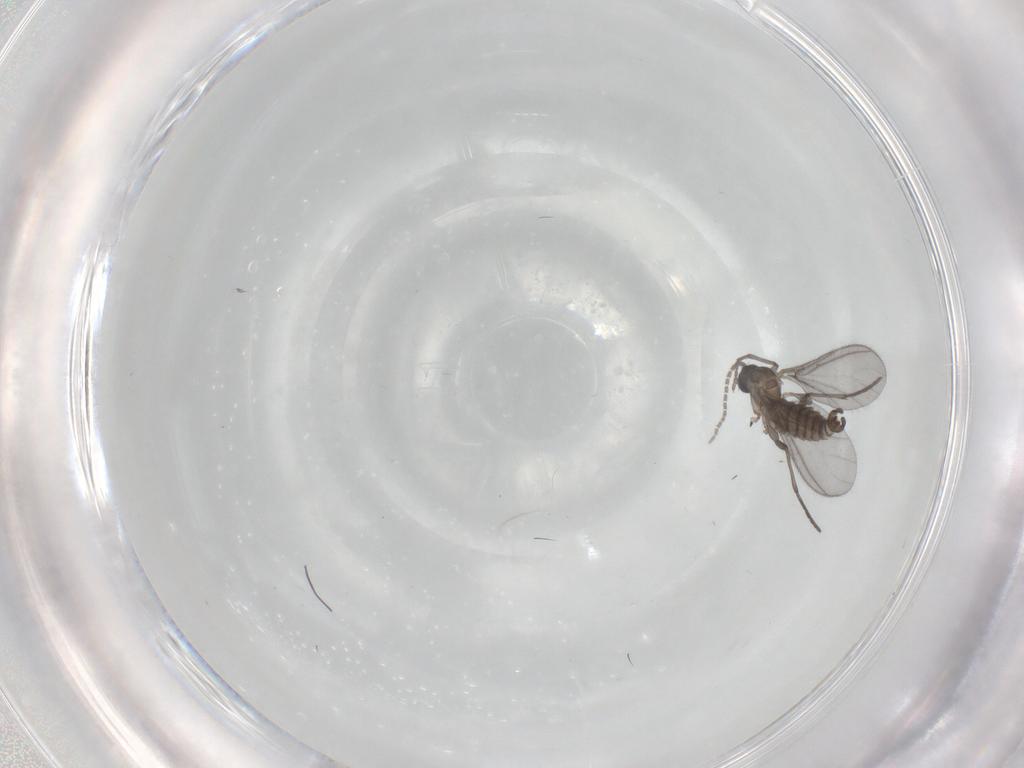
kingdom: Animalia
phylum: Arthropoda
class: Insecta
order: Diptera
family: Sciaridae
